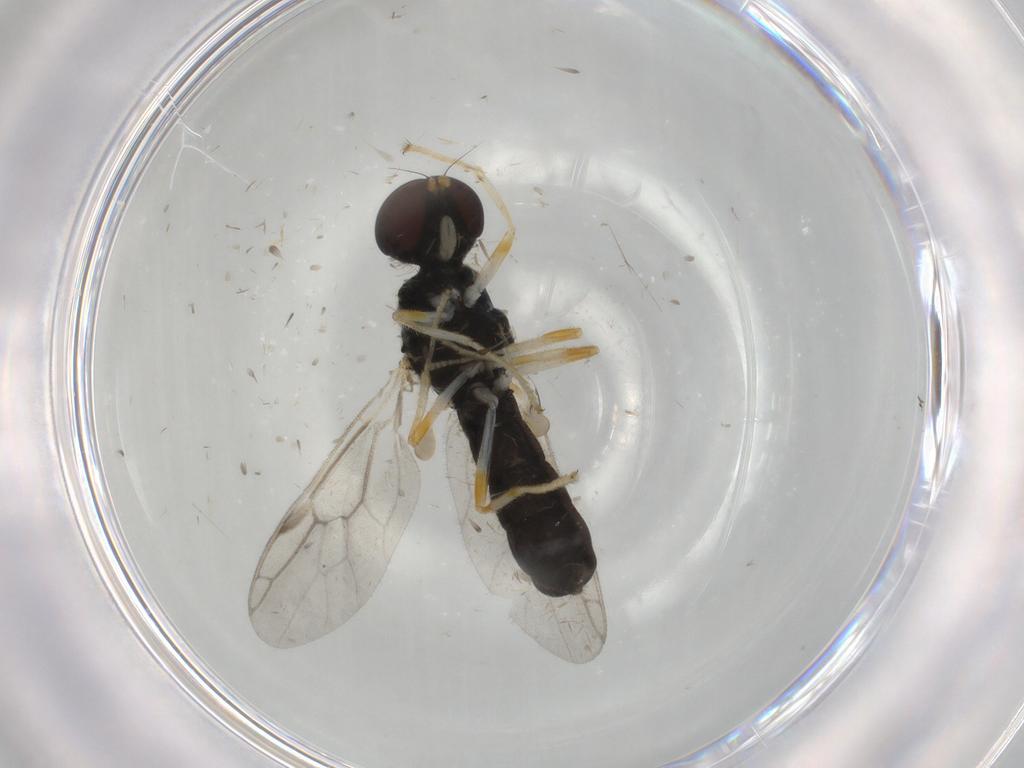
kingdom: Animalia
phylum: Arthropoda
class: Insecta
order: Diptera
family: Stratiomyidae
